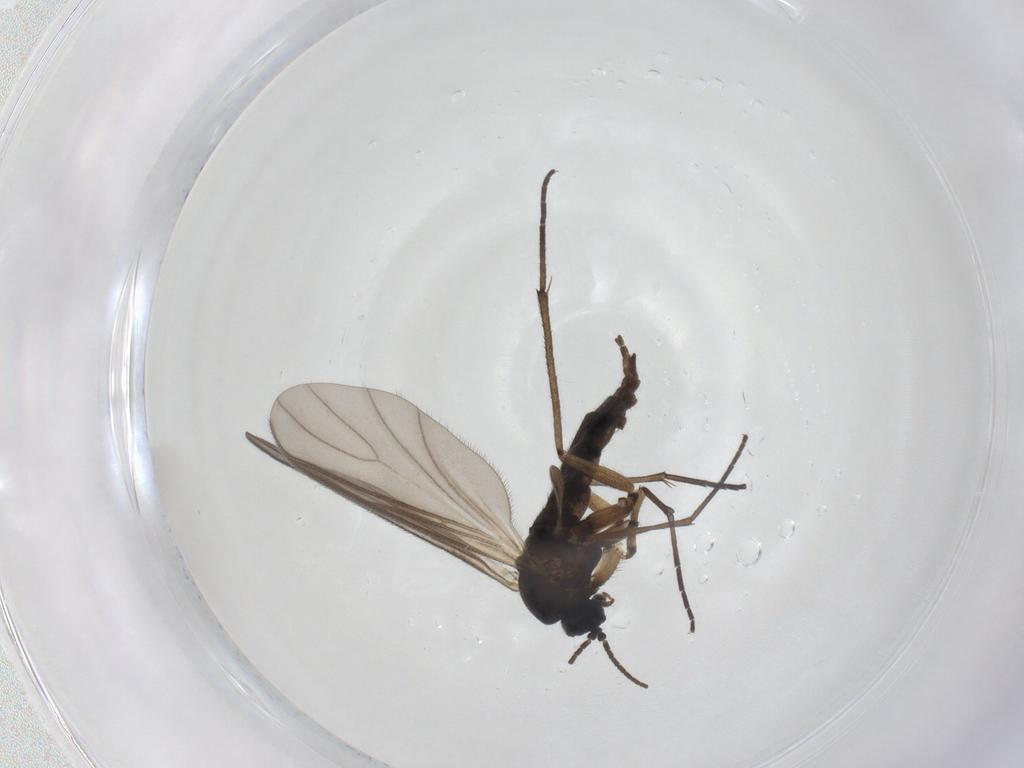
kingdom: Animalia
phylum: Arthropoda
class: Insecta
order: Diptera
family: Sciaridae
